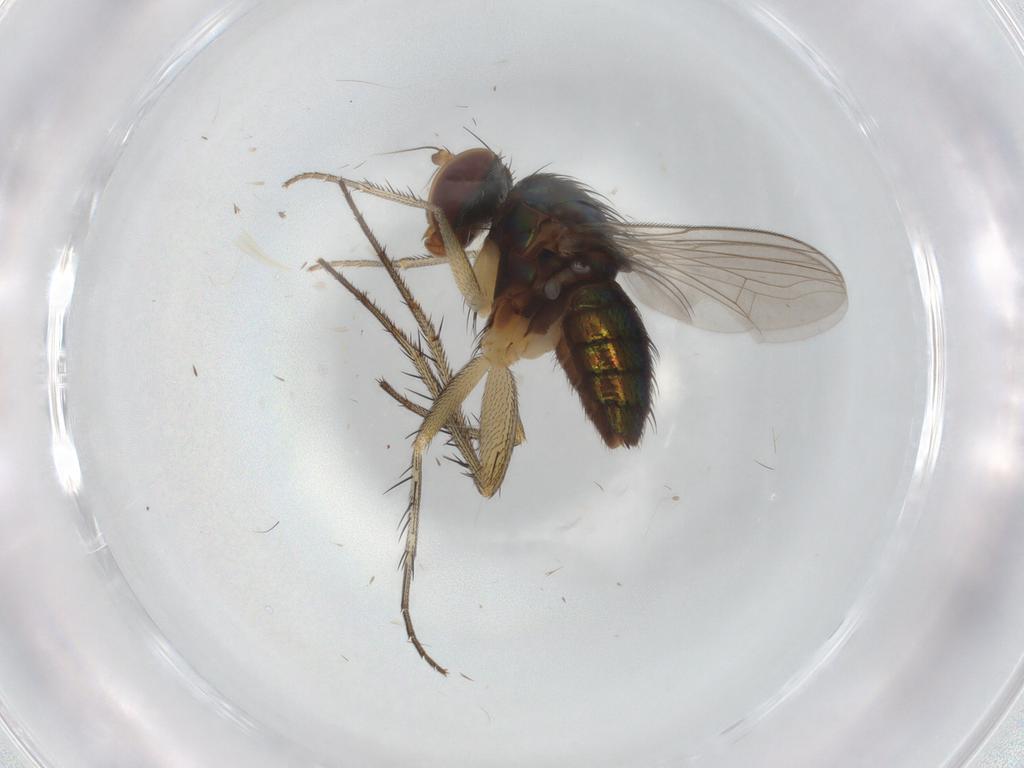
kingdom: Animalia
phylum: Arthropoda
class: Insecta
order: Diptera
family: Dolichopodidae
